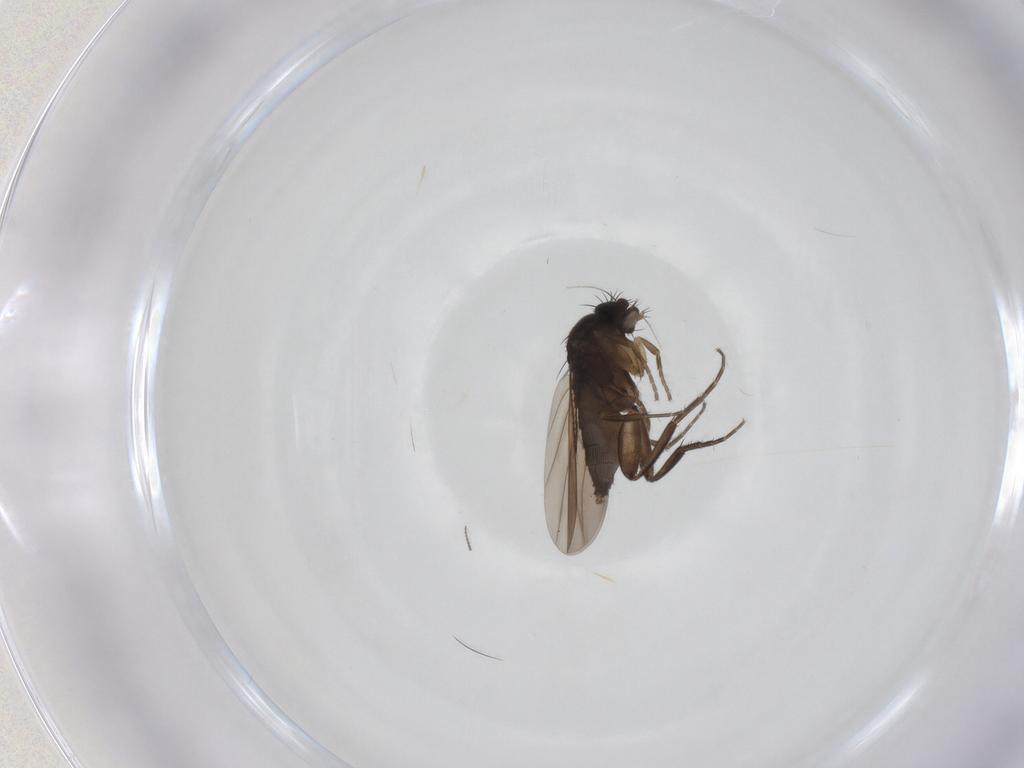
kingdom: Animalia
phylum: Arthropoda
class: Insecta
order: Diptera
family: Phoridae
